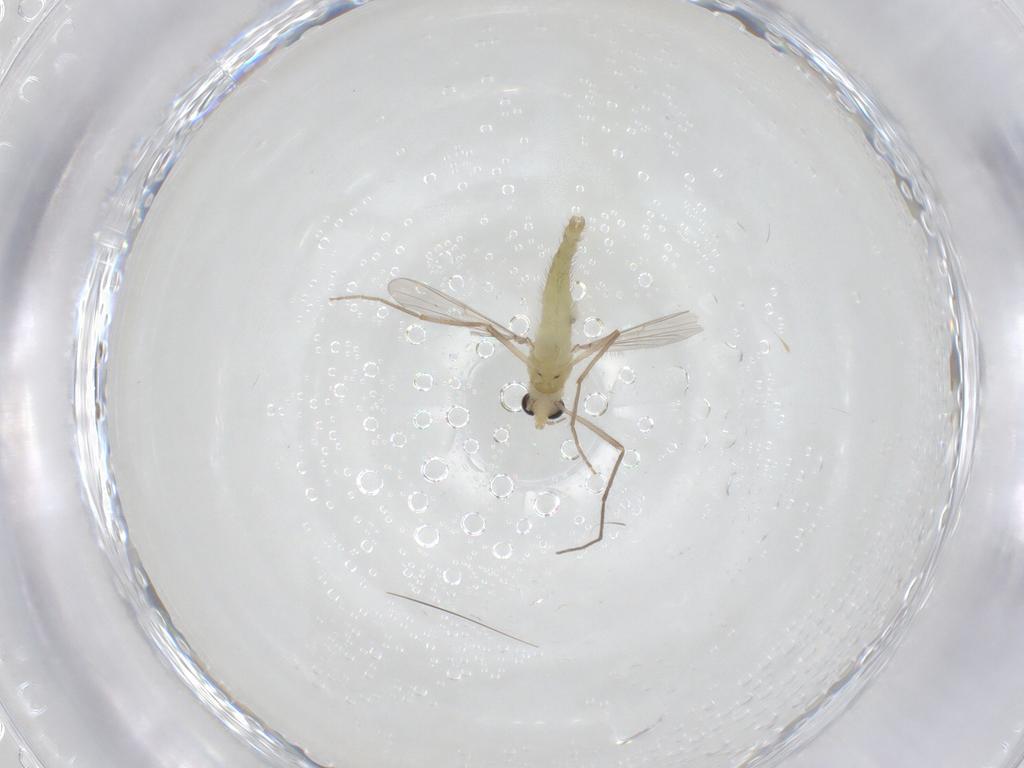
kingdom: Animalia
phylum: Arthropoda
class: Insecta
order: Diptera
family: Chironomidae
